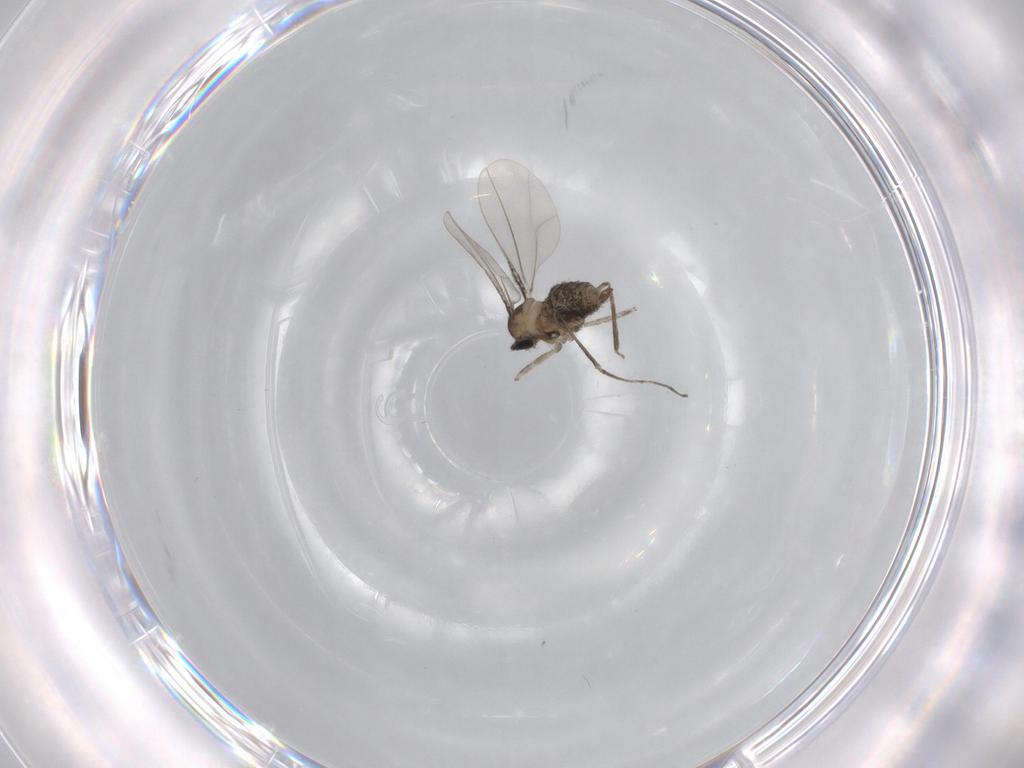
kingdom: Animalia
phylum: Arthropoda
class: Insecta
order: Diptera
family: Cecidomyiidae
